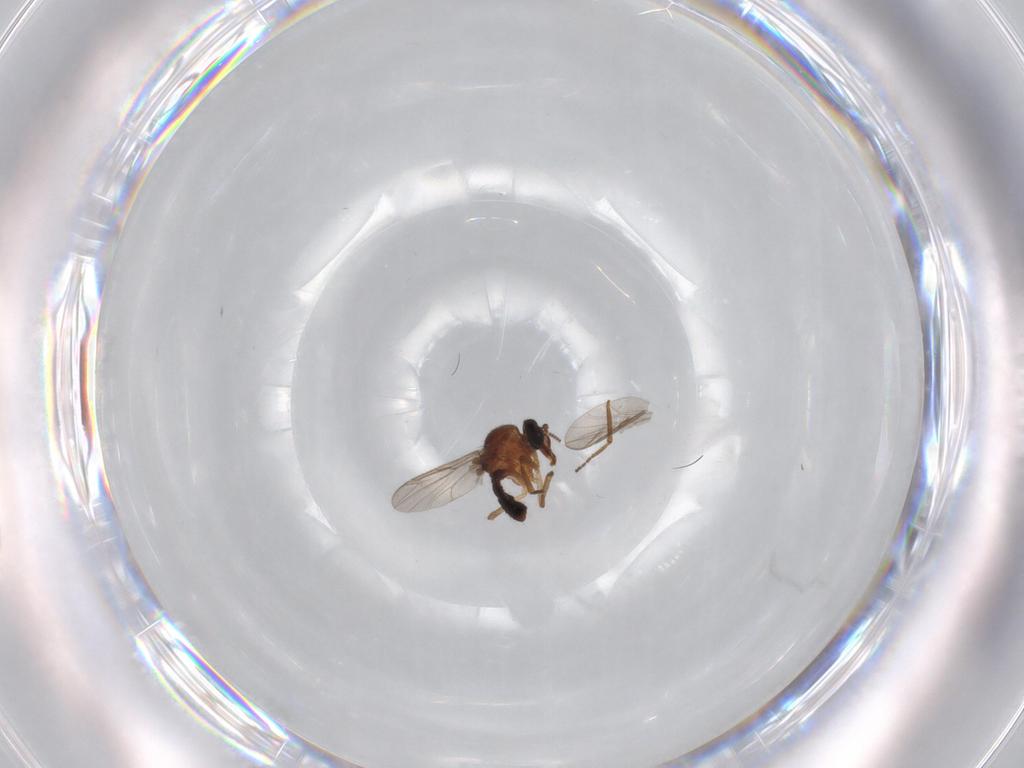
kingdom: Animalia
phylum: Arthropoda
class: Insecta
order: Diptera
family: Ceratopogonidae
